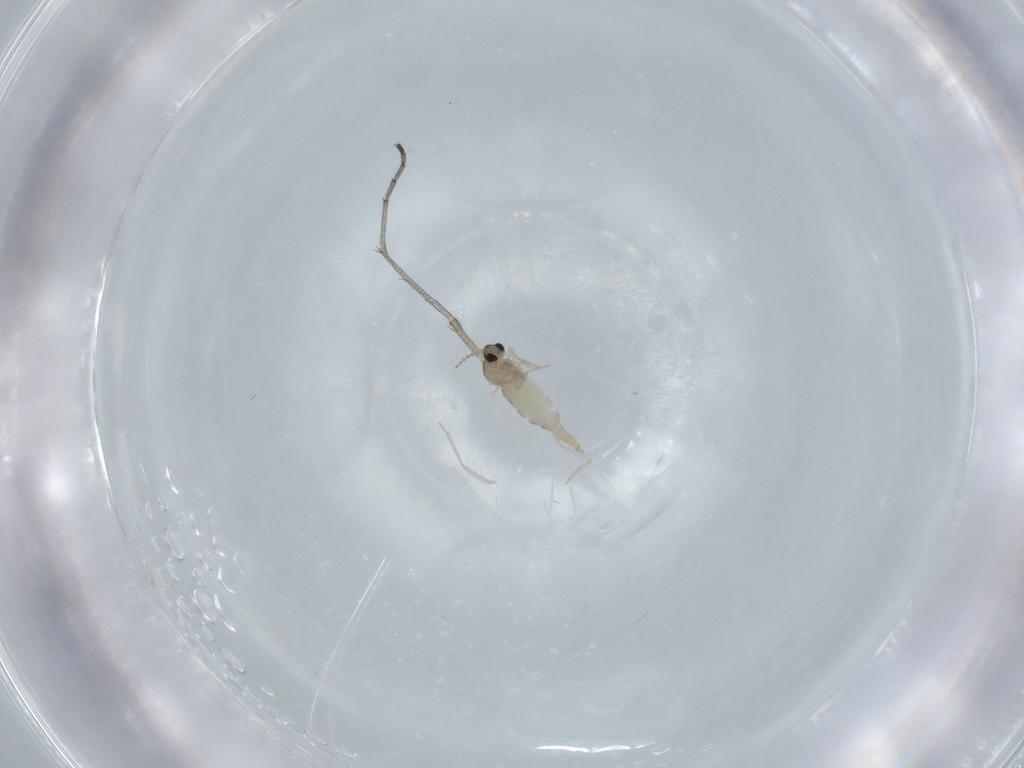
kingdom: Animalia
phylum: Arthropoda
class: Insecta
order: Diptera
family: Cecidomyiidae
